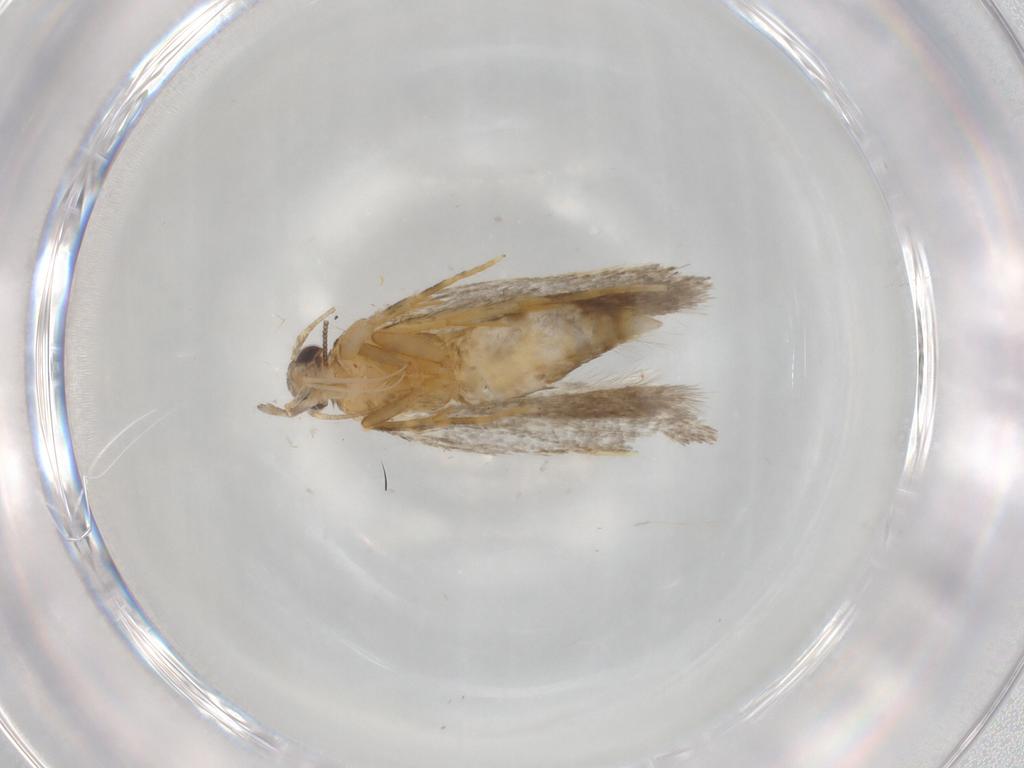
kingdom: Animalia
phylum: Arthropoda
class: Insecta
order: Lepidoptera
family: Autostichidae
